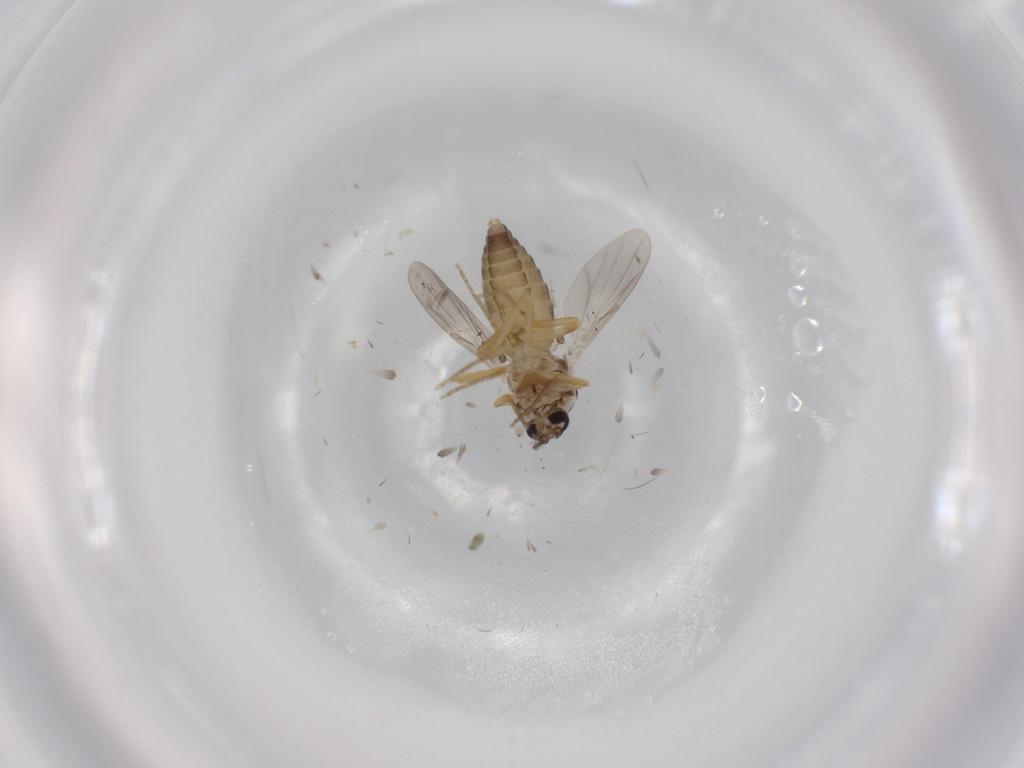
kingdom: Animalia
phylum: Arthropoda
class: Insecta
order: Diptera
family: Ceratopogonidae
